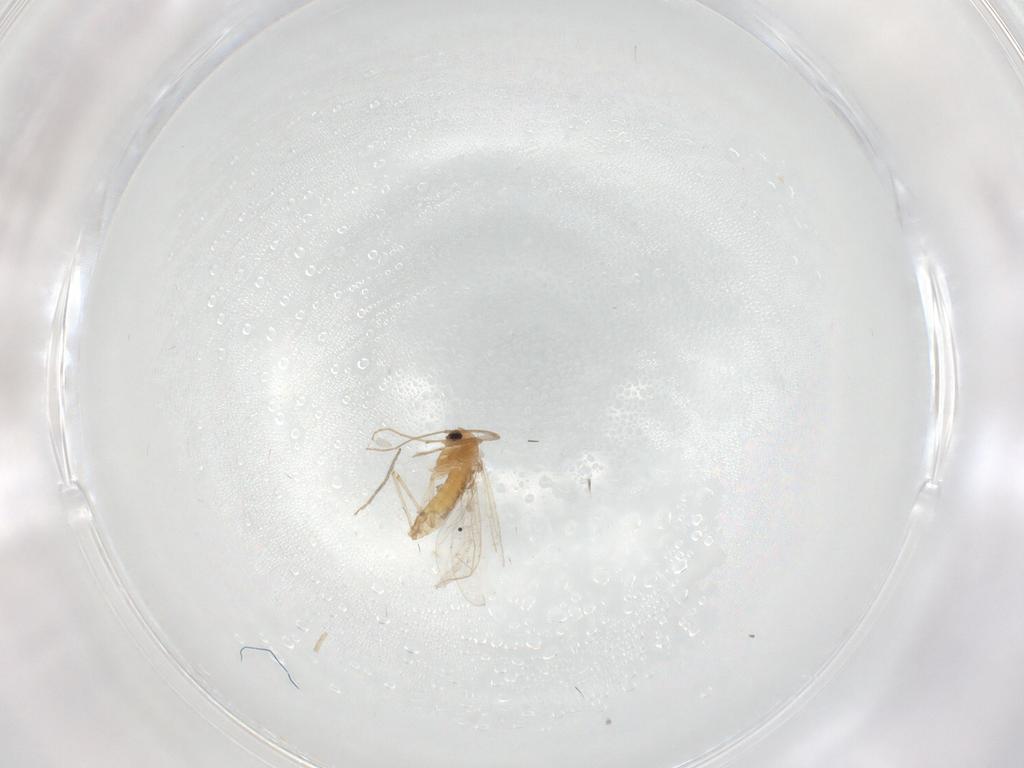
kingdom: Animalia
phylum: Arthropoda
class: Insecta
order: Diptera
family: Chironomidae
